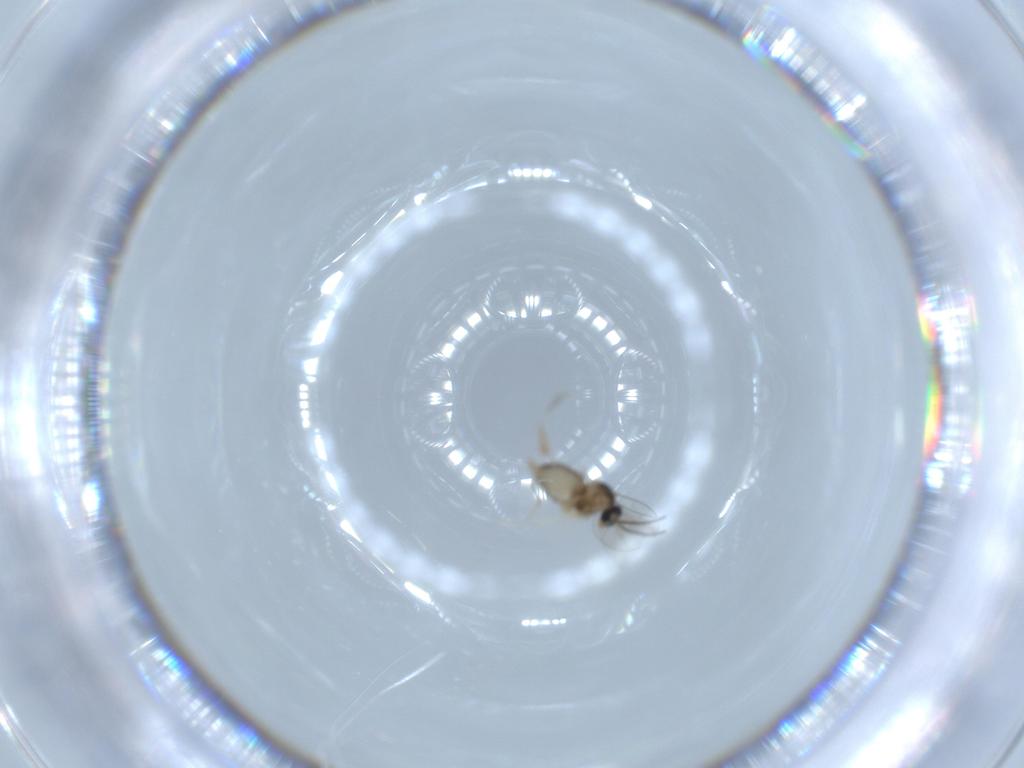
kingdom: Animalia
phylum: Arthropoda
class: Insecta
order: Diptera
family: Cecidomyiidae
